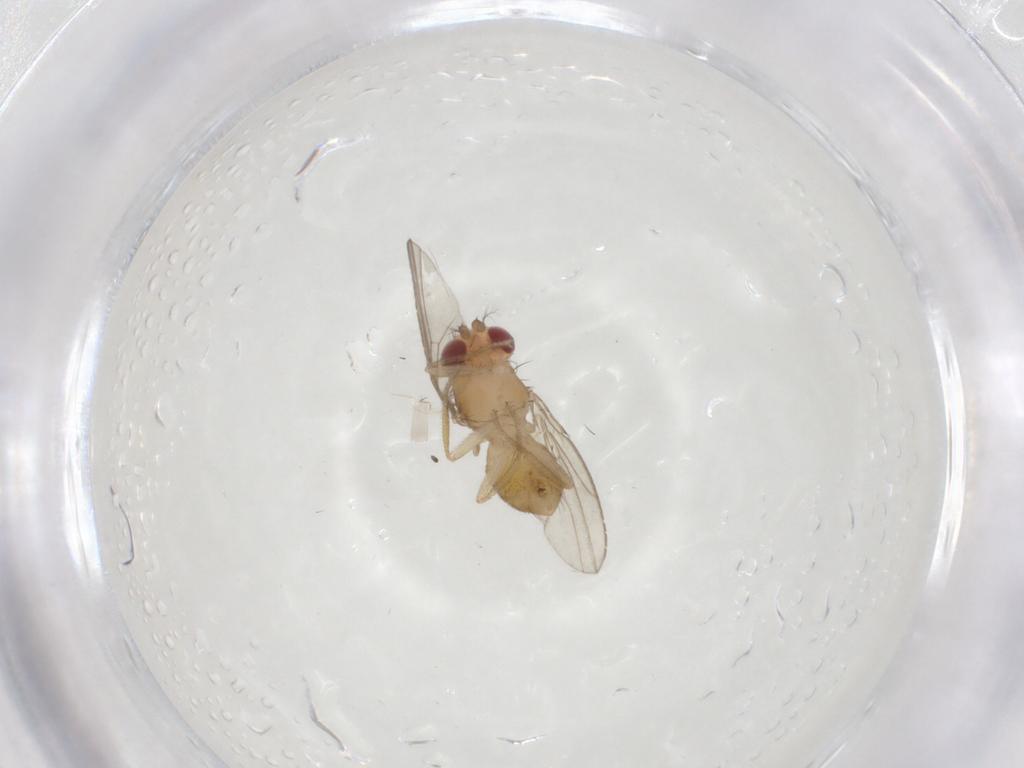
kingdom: Animalia
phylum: Arthropoda
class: Insecta
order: Diptera
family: Drosophilidae
